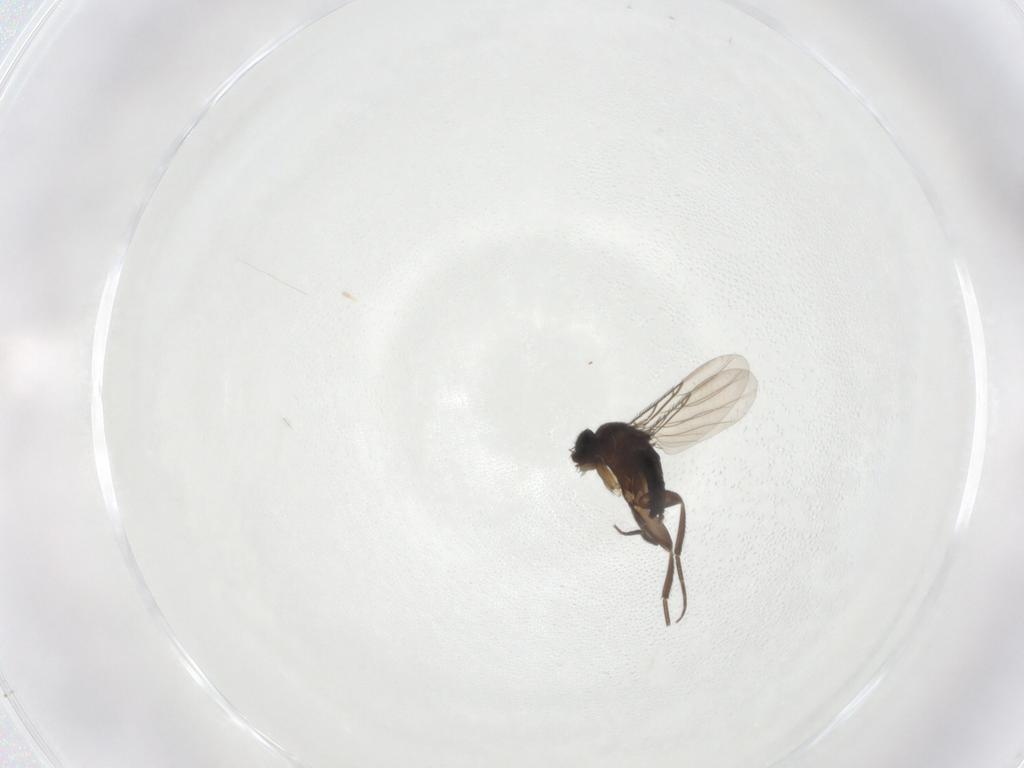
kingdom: Animalia
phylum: Arthropoda
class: Insecta
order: Diptera
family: Phoridae
